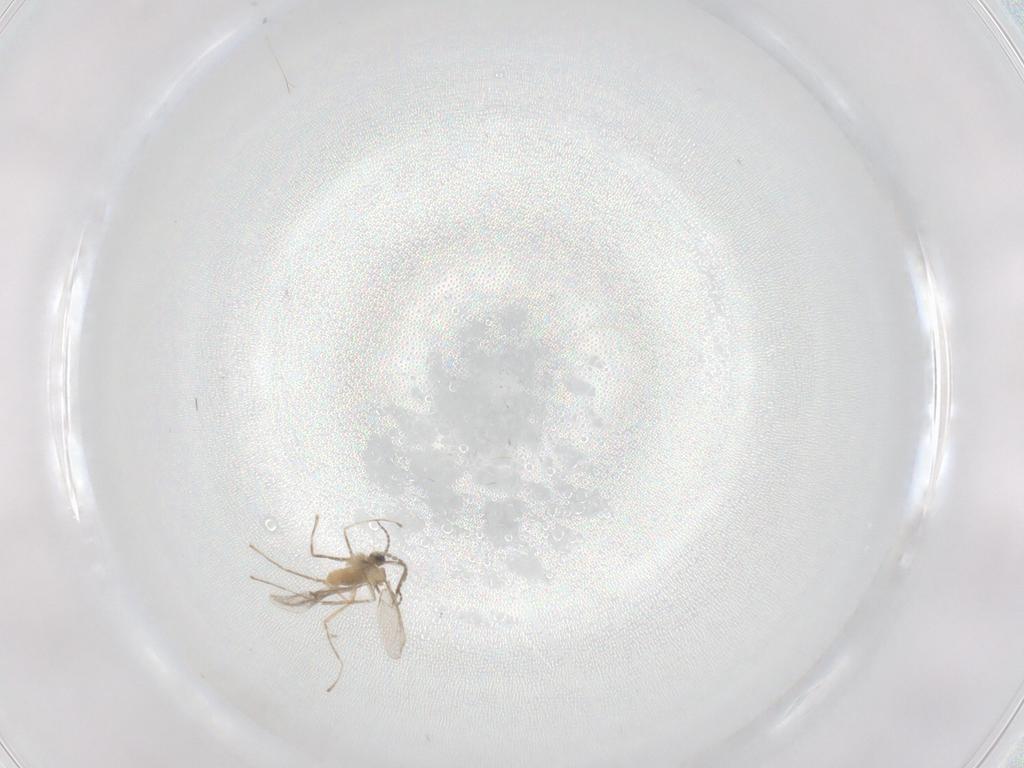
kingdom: Animalia
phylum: Arthropoda
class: Insecta
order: Diptera
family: Cecidomyiidae
